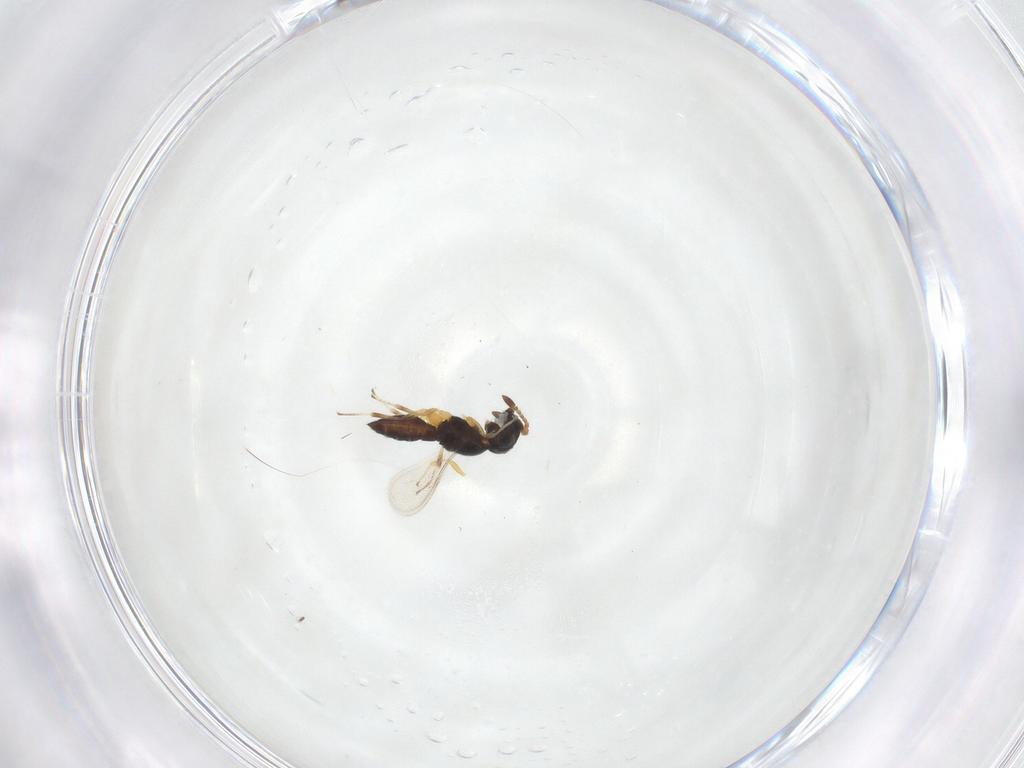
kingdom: Animalia
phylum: Arthropoda
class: Insecta
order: Hymenoptera
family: Scelionidae
